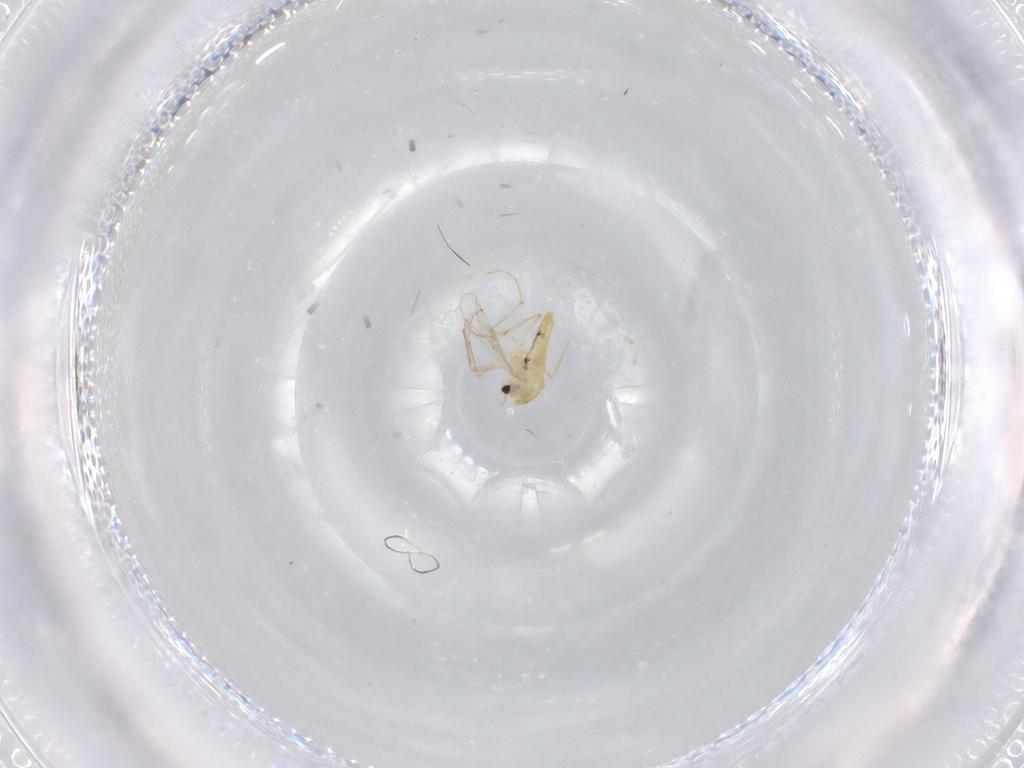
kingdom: Animalia
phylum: Arthropoda
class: Insecta
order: Diptera
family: Chironomidae
